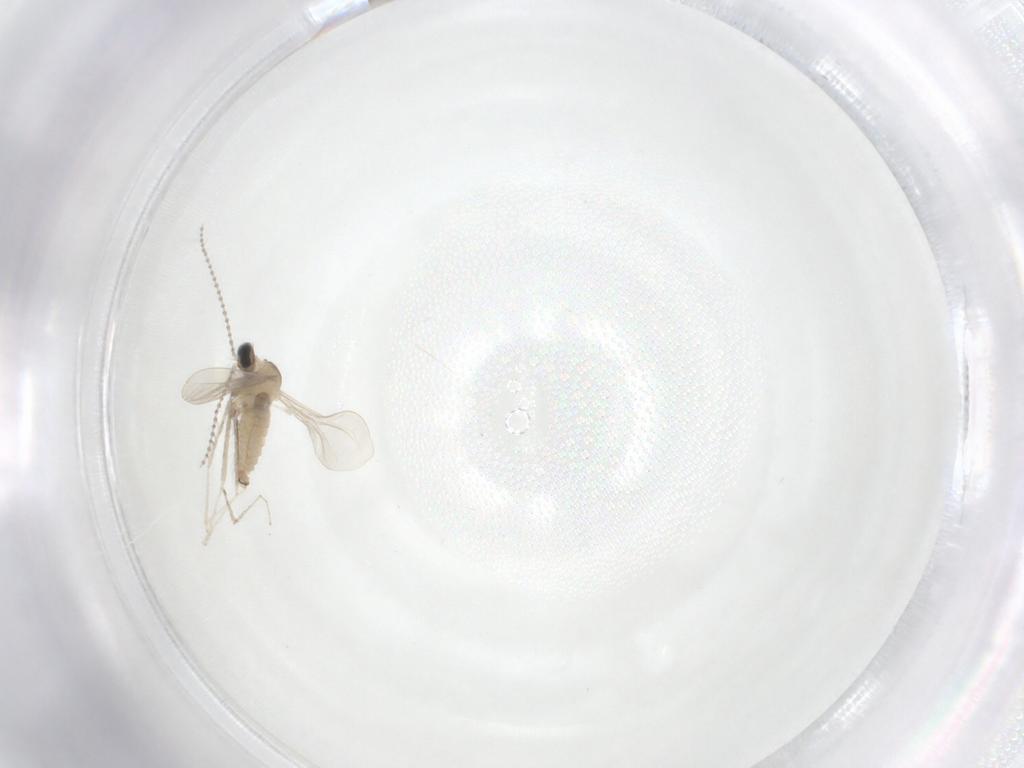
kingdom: Animalia
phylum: Arthropoda
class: Insecta
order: Diptera
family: Cecidomyiidae
